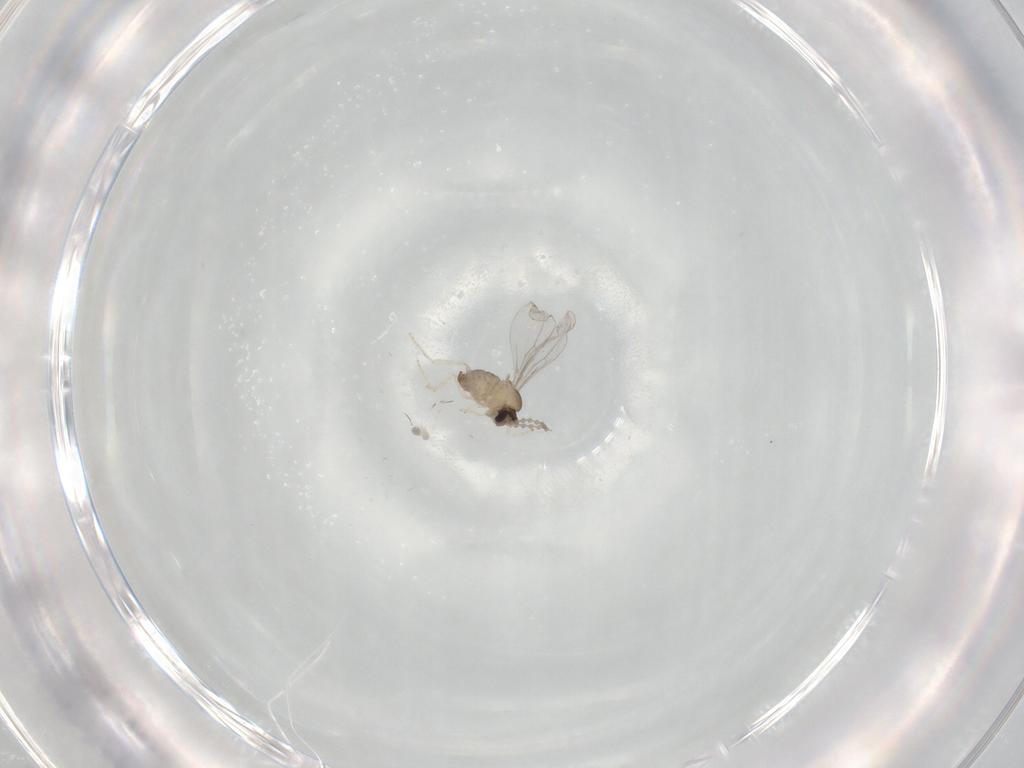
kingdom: Animalia
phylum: Arthropoda
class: Insecta
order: Diptera
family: Cecidomyiidae
